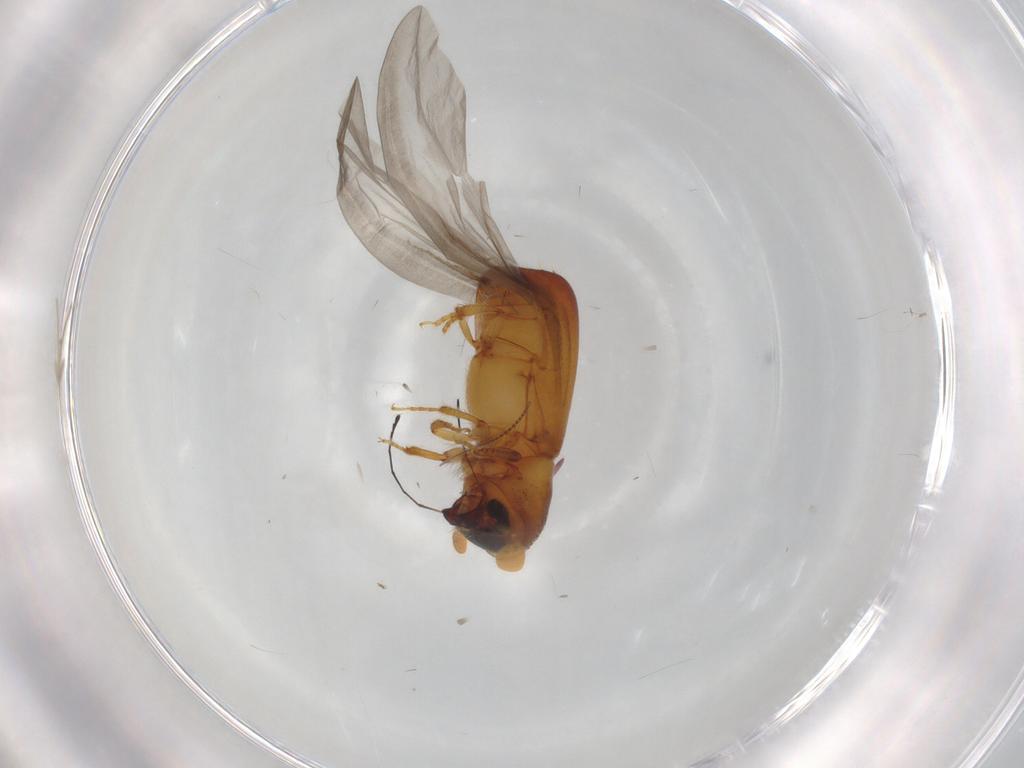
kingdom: Animalia
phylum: Arthropoda
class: Insecta
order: Coleoptera
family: Curculionidae
